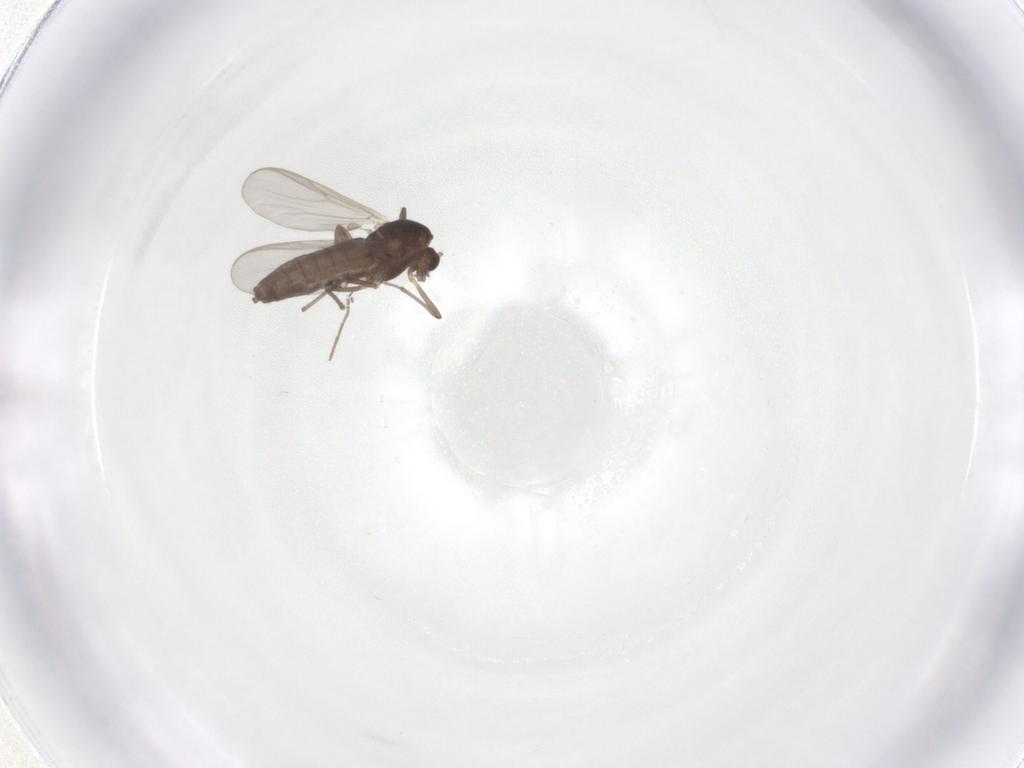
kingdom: Animalia
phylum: Arthropoda
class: Insecta
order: Diptera
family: Chironomidae
